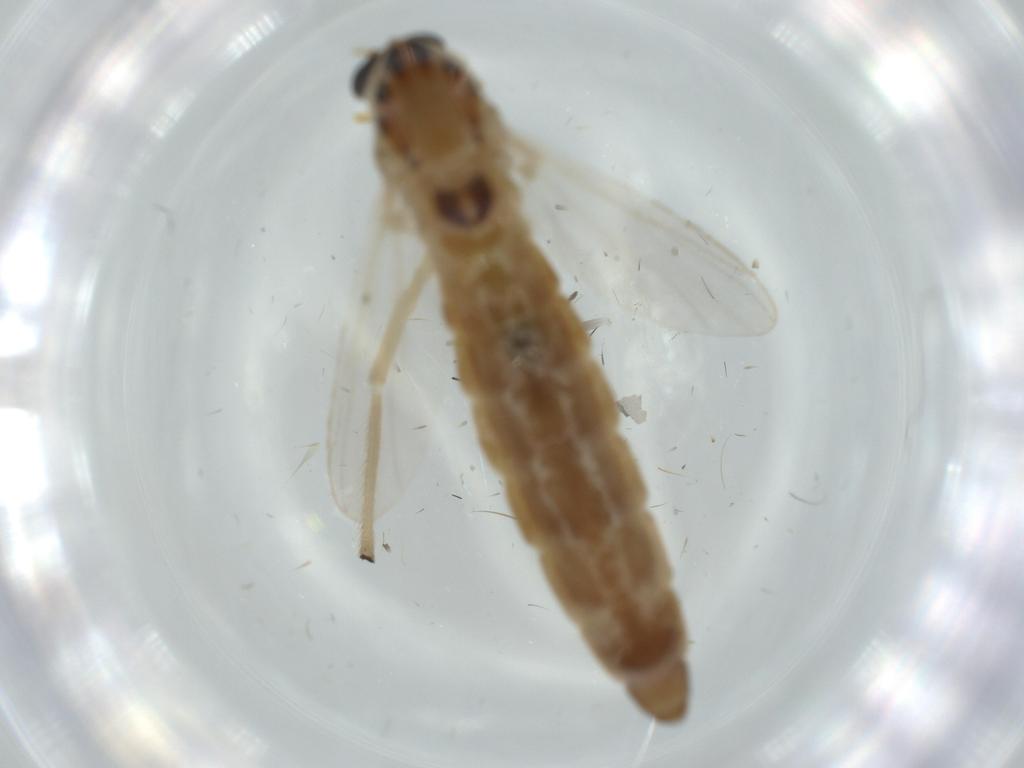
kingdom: Animalia
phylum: Arthropoda
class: Insecta
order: Diptera
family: Chironomidae
